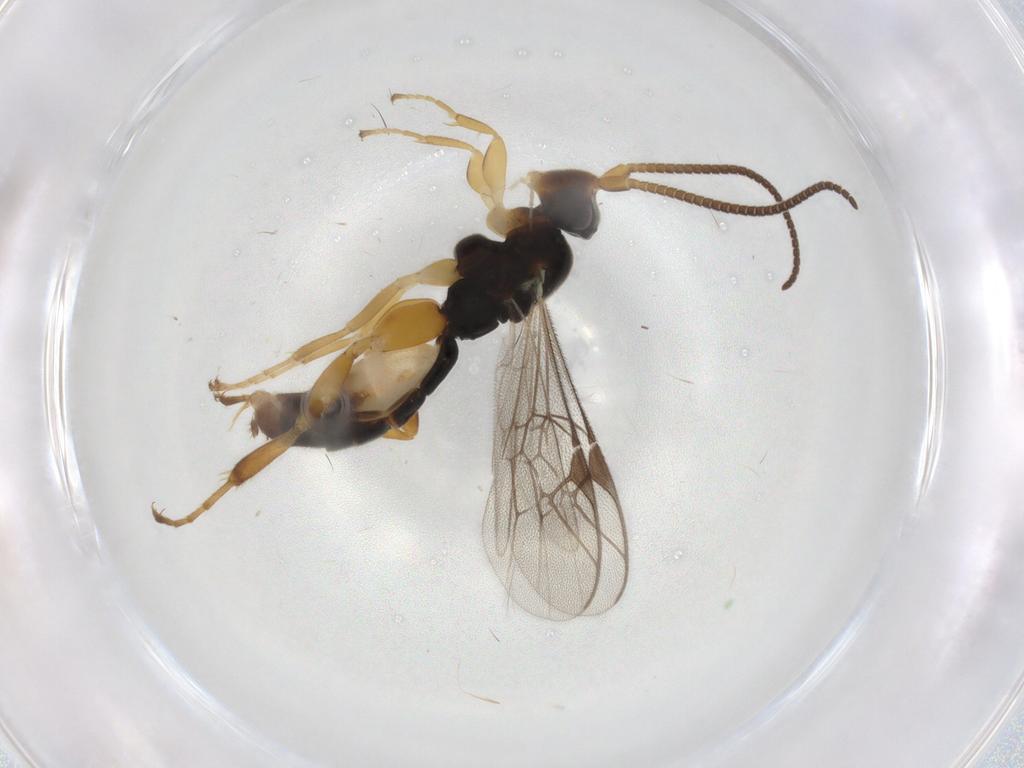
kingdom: Animalia
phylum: Arthropoda
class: Insecta
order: Hymenoptera
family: Ichneumonidae
